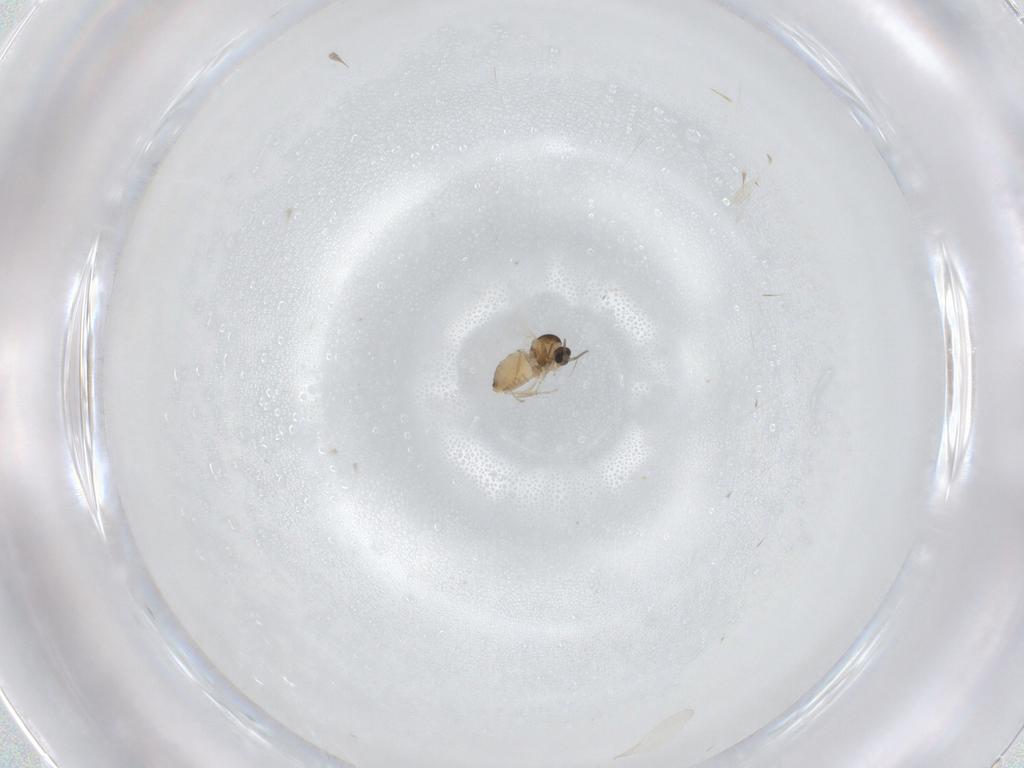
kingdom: Animalia
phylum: Arthropoda
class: Insecta
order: Diptera
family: Cecidomyiidae
